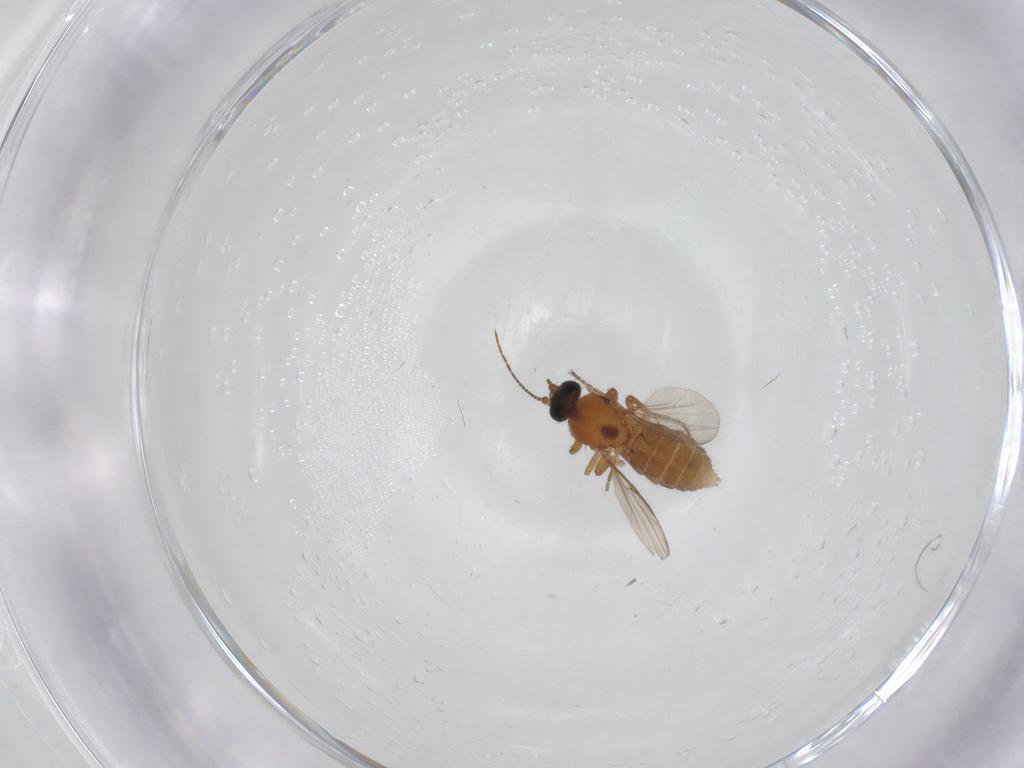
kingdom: Animalia
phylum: Arthropoda
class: Insecta
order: Diptera
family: Ceratopogonidae
